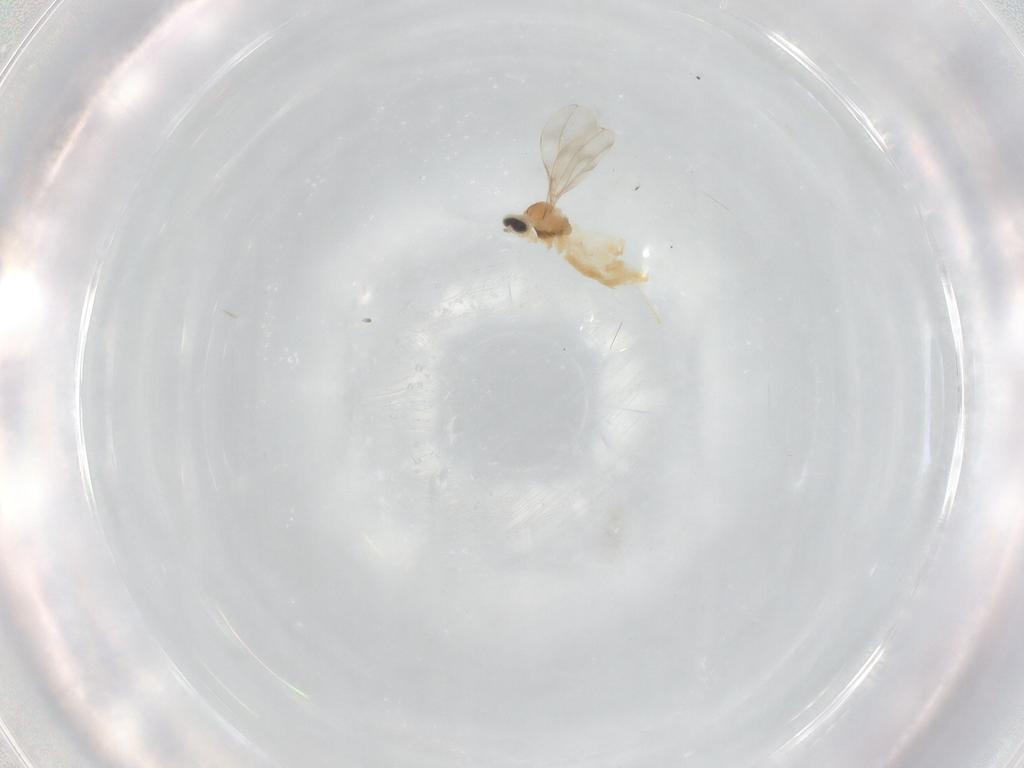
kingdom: Animalia
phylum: Arthropoda
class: Insecta
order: Diptera
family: Cecidomyiidae
